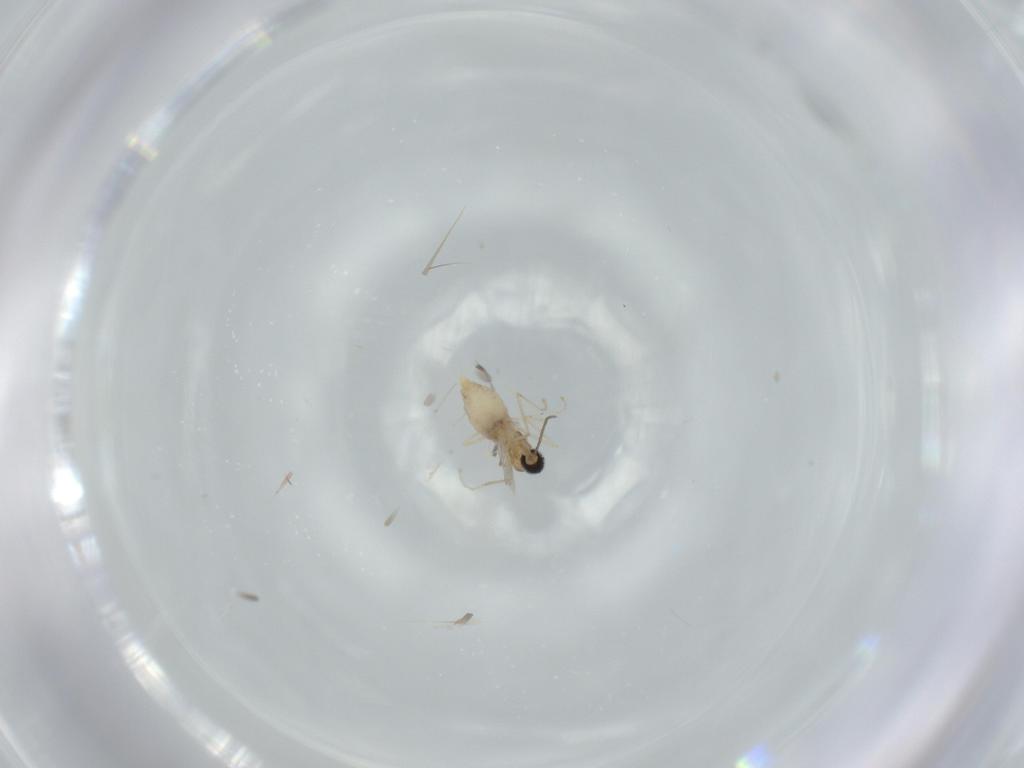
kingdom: Animalia
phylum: Arthropoda
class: Insecta
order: Diptera
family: Cecidomyiidae
